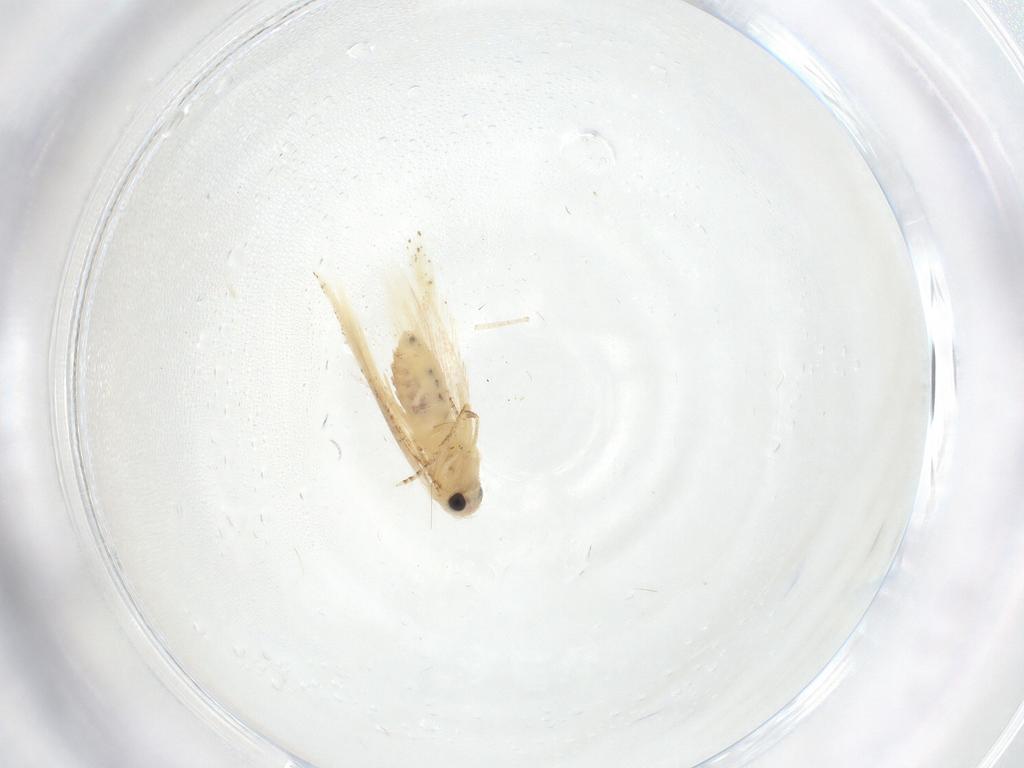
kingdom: Animalia
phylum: Arthropoda
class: Insecta
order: Lepidoptera
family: Depressariidae
